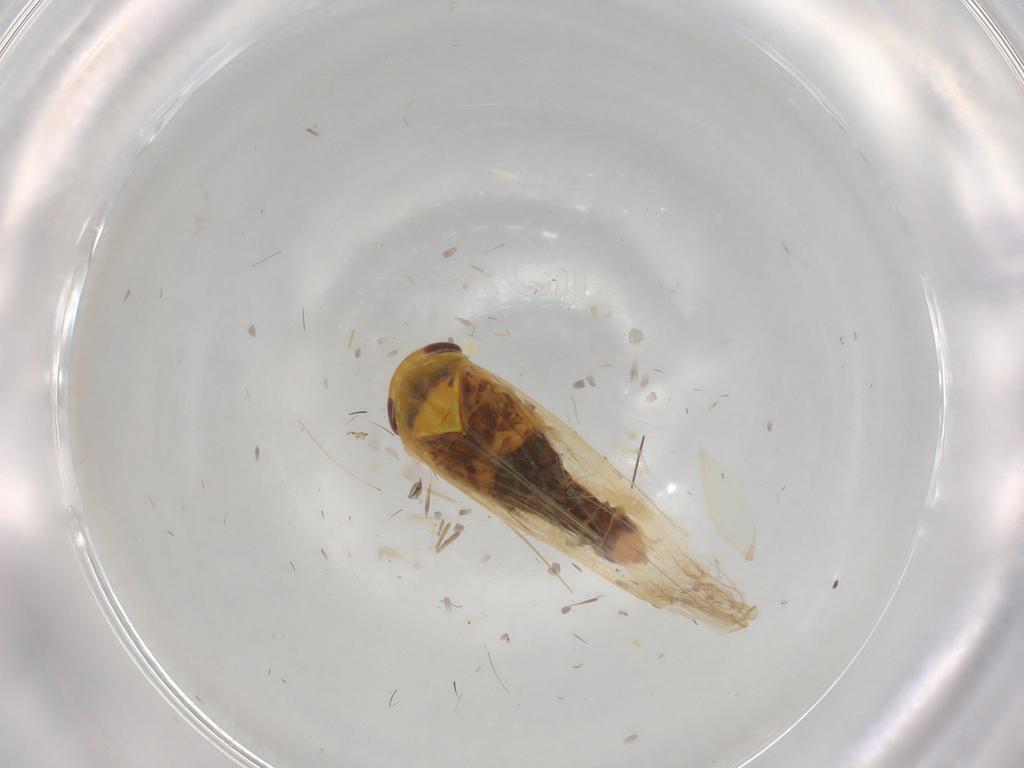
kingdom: Animalia
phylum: Arthropoda
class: Insecta
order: Hemiptera
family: Cicadellidae
